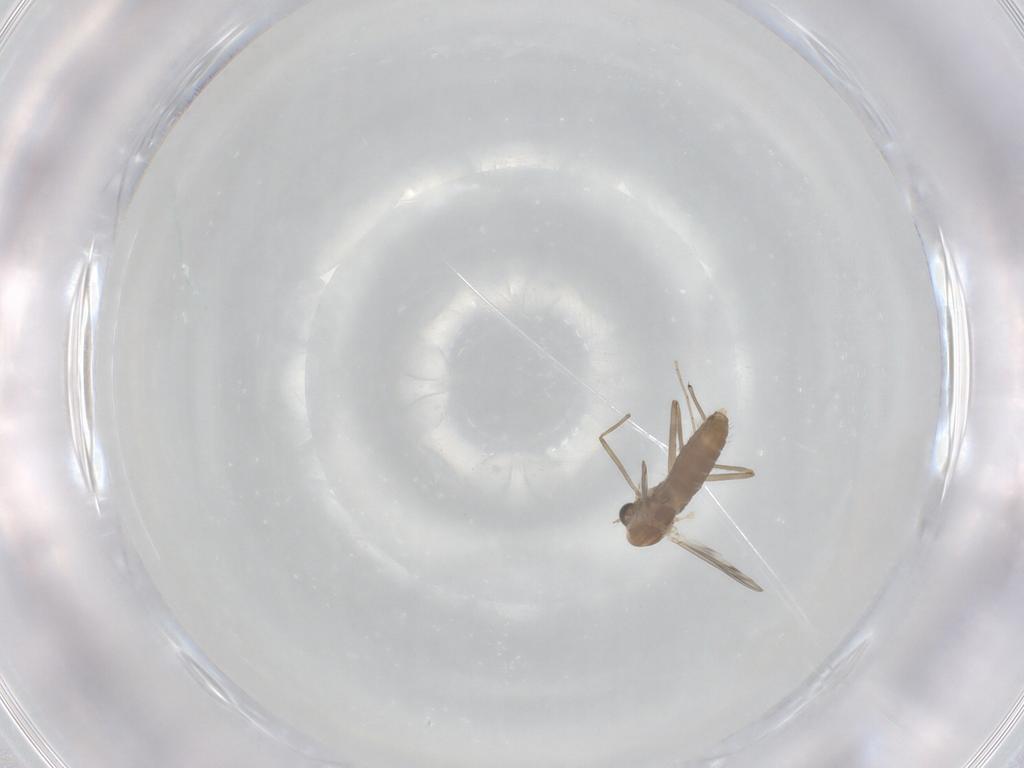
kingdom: Animalia
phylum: Arthropoda
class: Insecta
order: Diptera
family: Chironomidae
